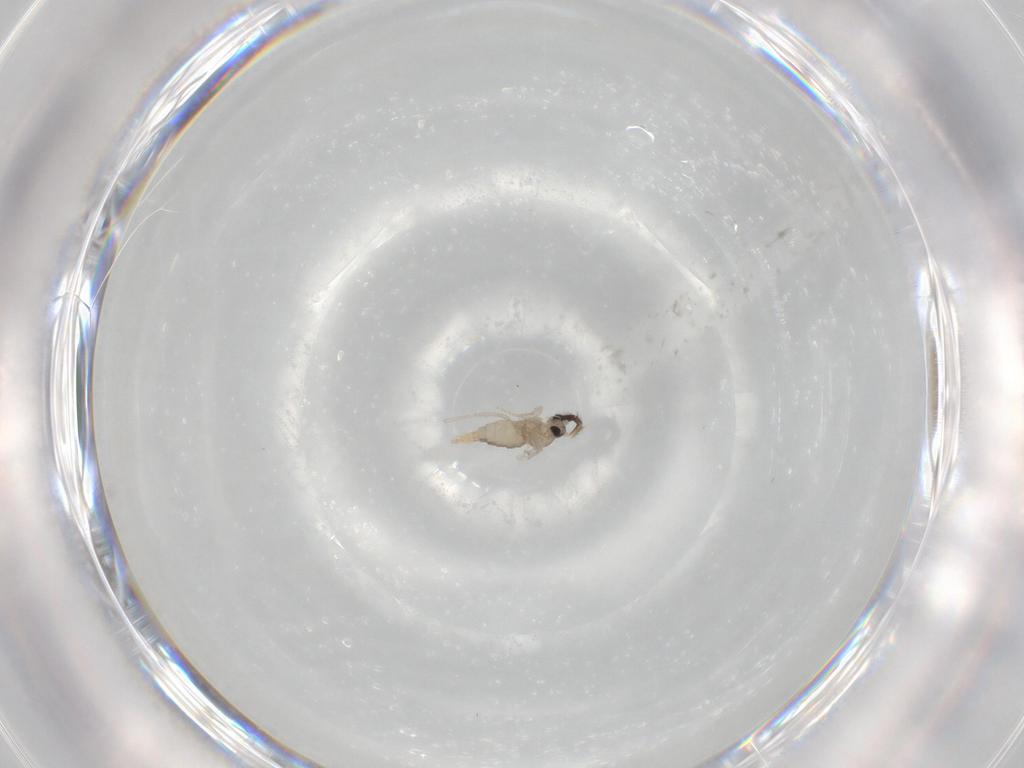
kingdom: Animalia
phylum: Arthropoda
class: Insecta
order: Diptera
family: Cecidomyiidae
